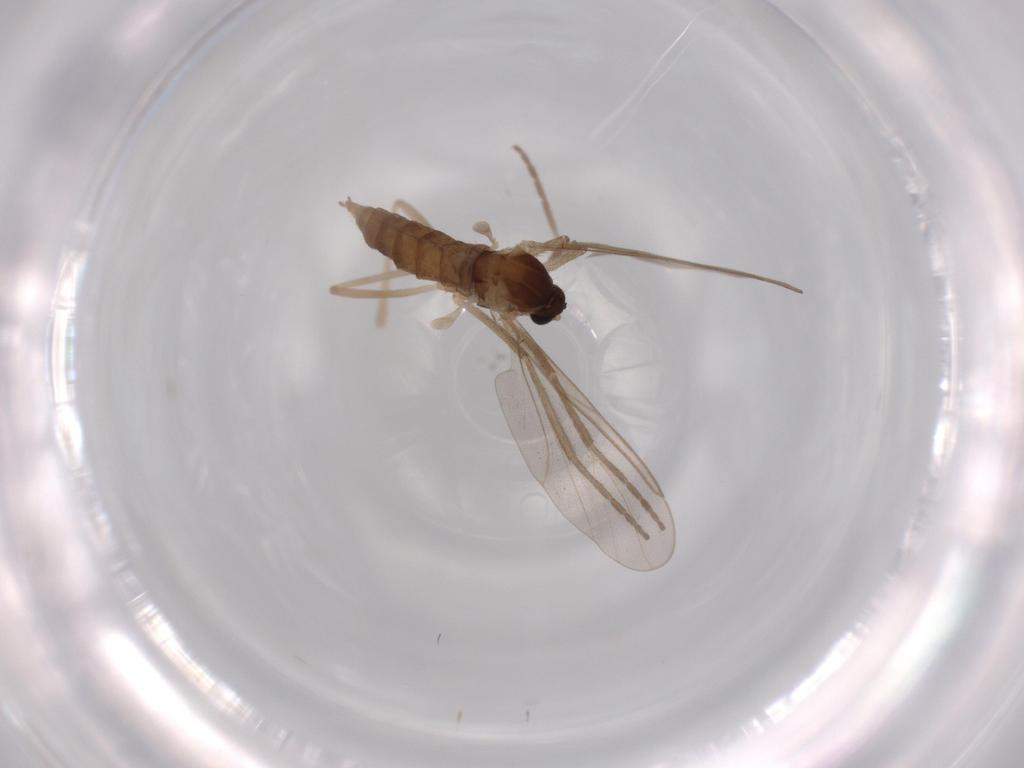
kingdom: Animalia
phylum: Arthropoda
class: Insecta
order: Diptera
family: Cecidomyiidae
